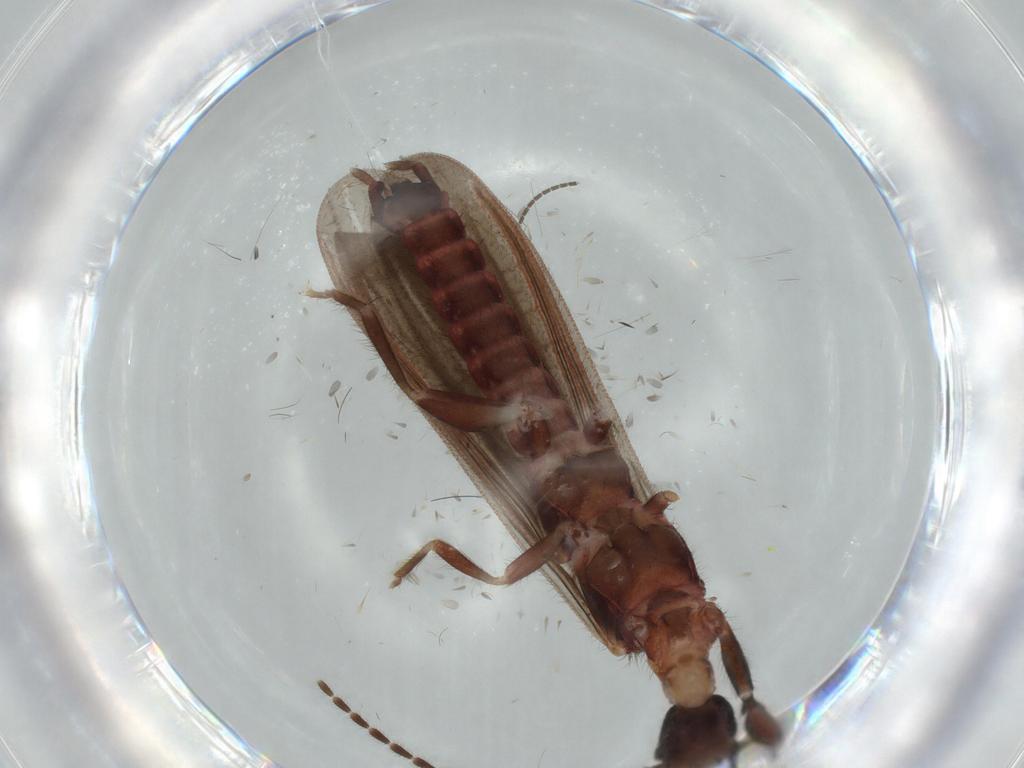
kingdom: Animalia
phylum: Arthropoda
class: Insecta
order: Embioptera
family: Anisembiidae
